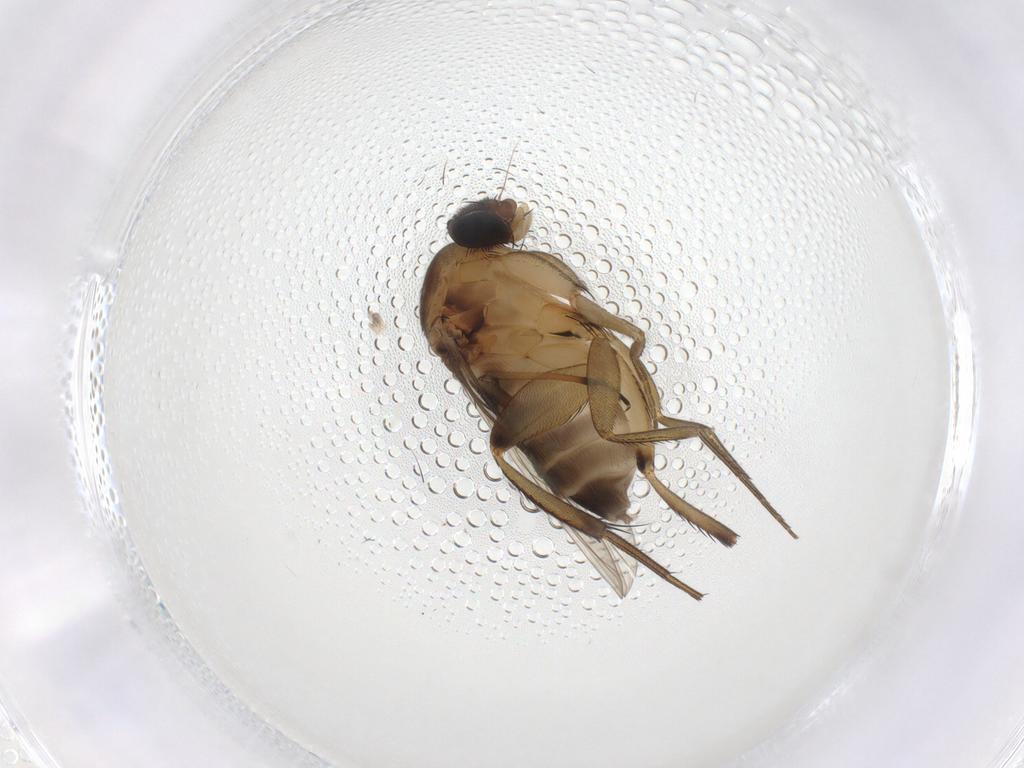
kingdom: Animalia
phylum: Arthropoda
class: Insecta
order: Diptera
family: Phoridae
